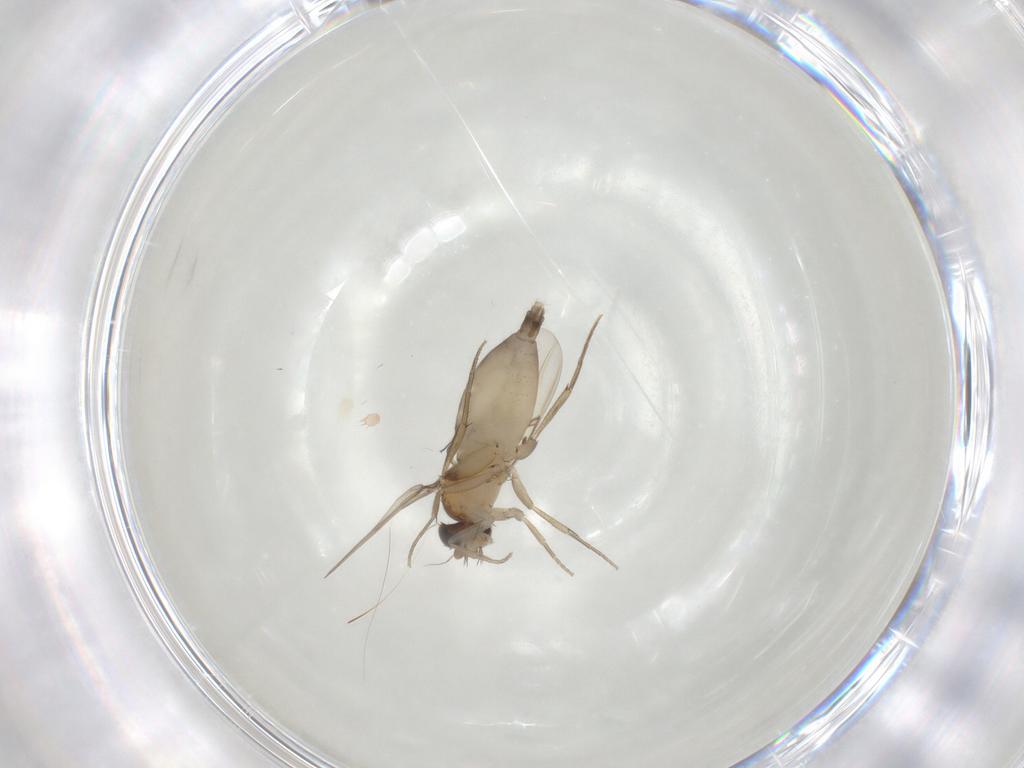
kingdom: Animalia
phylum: Arthropoda
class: Insecta
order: Diptera
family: Phoridae
